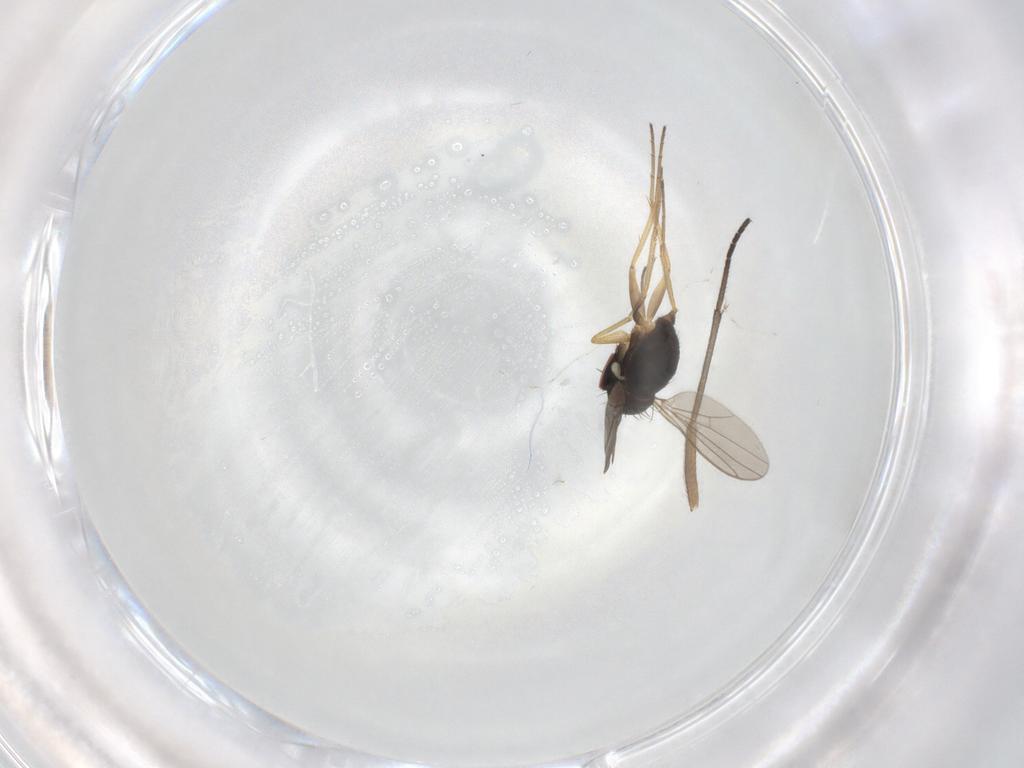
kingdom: Animalia
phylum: Arthropoda
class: Insecta
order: Diptera
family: Dolichopodidae
